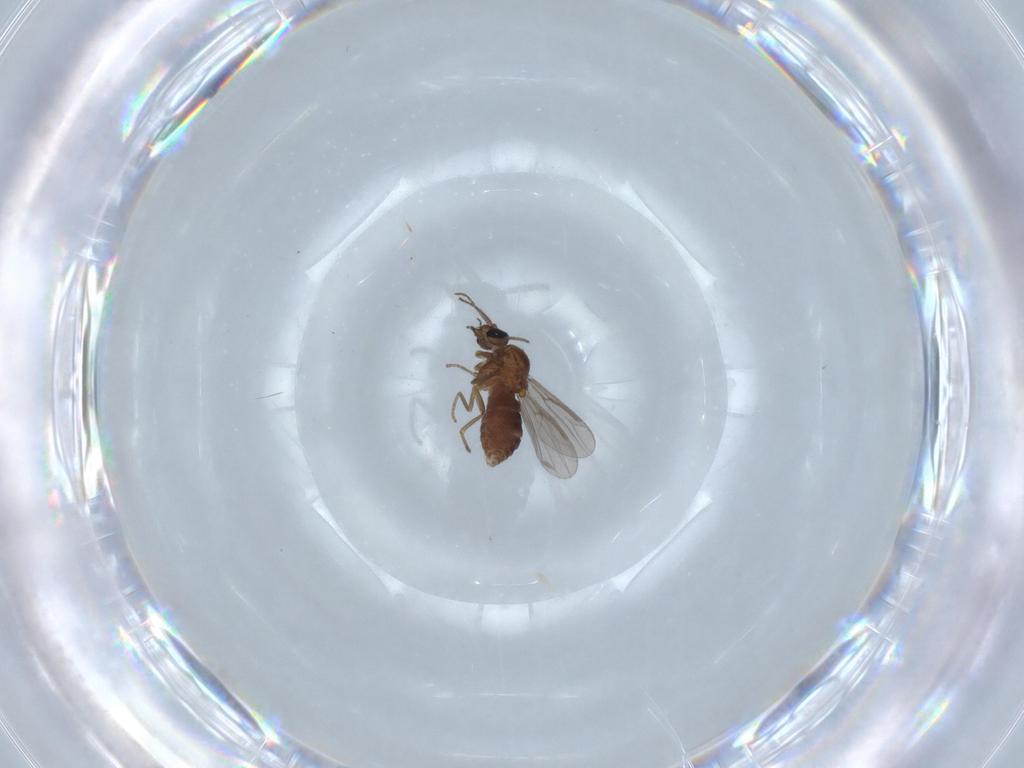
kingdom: Animalia
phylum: Arthropoda
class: Insecta
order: Diptera
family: Ceratopogonidae
